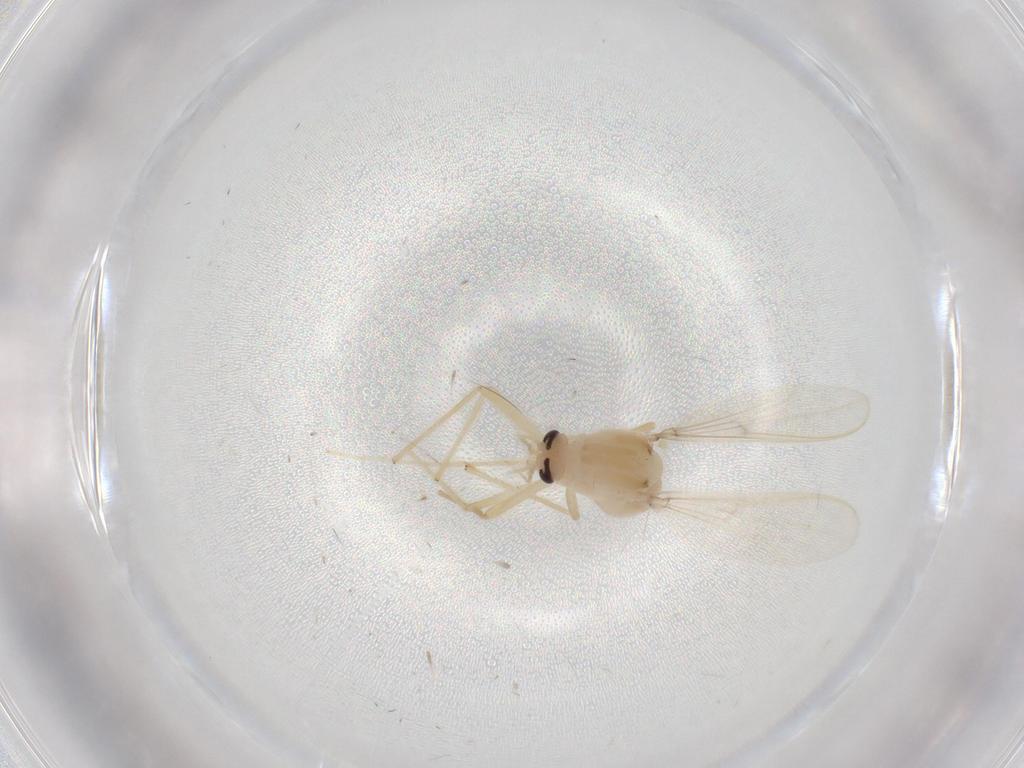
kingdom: Animalia
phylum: Arthropoda
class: Insecta
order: Diptera
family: Chironomidae
